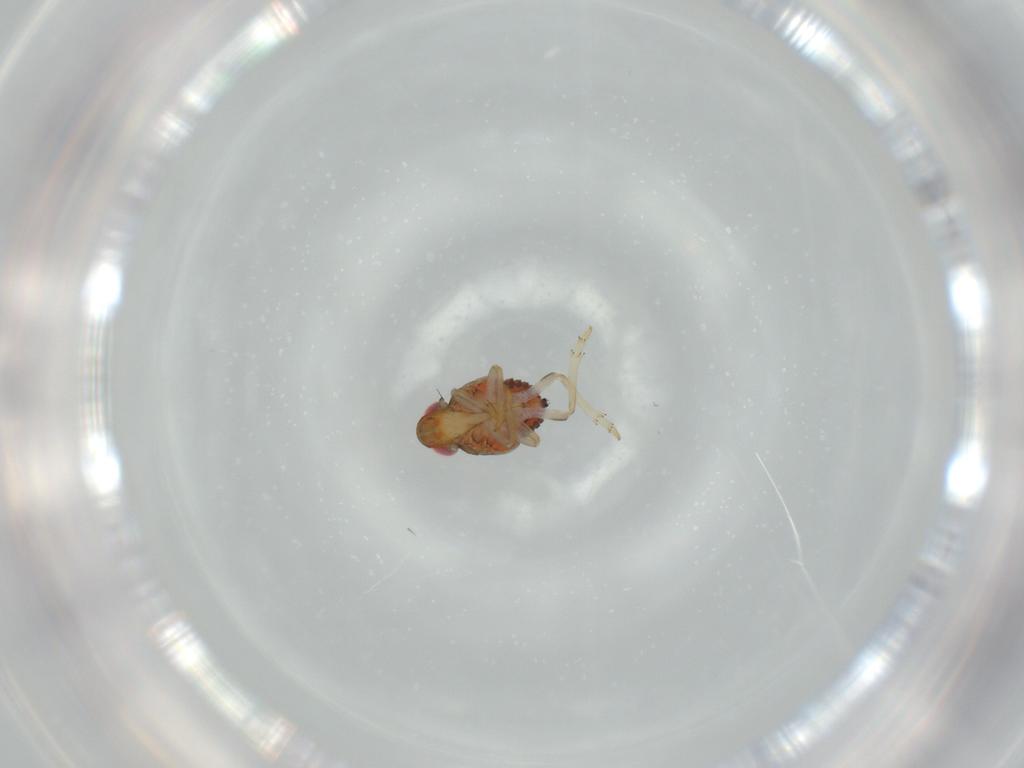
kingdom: Animalia
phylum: Arthropoda
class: Insecta
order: Hemiptera
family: Issidae
